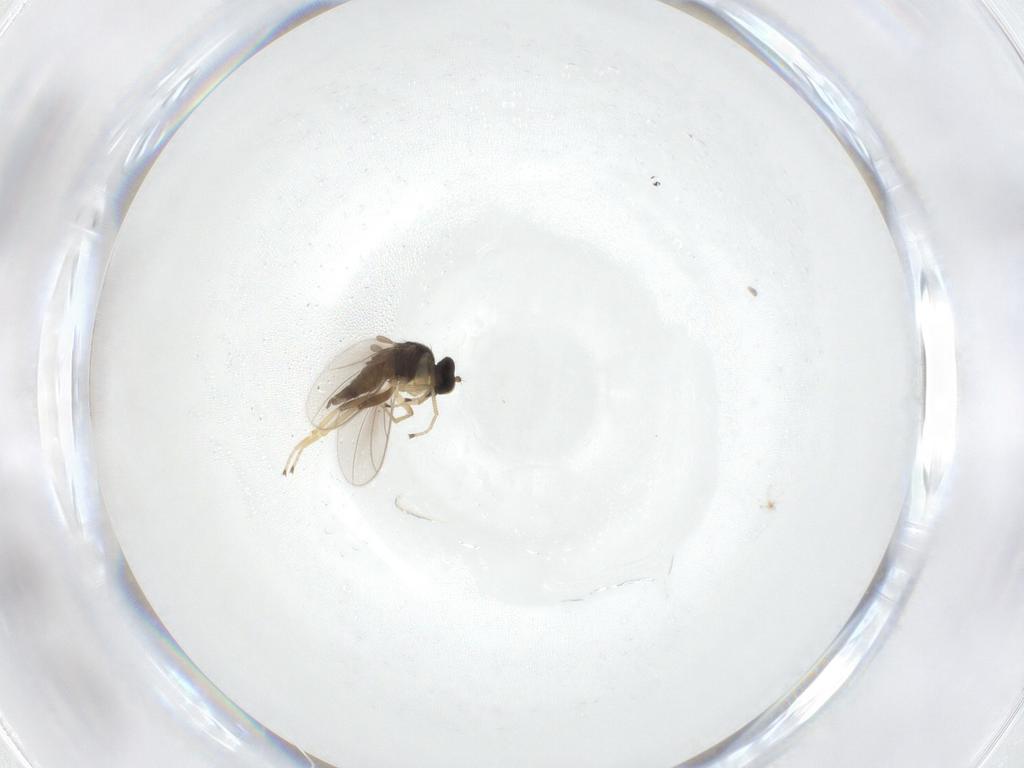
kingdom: Animalia
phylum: Arthropoda
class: Insecta
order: Diptera
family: Hybotidae
